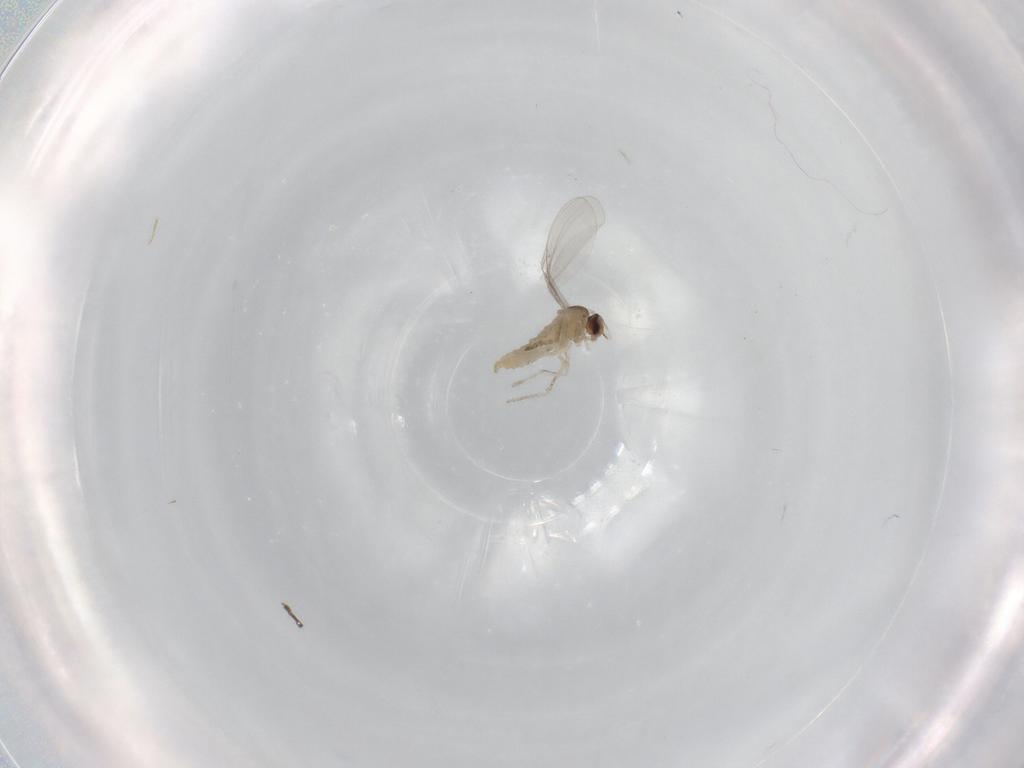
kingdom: Animalia
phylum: Arthropoda
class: Insecta
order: Diptera
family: Cecidomyiidae
